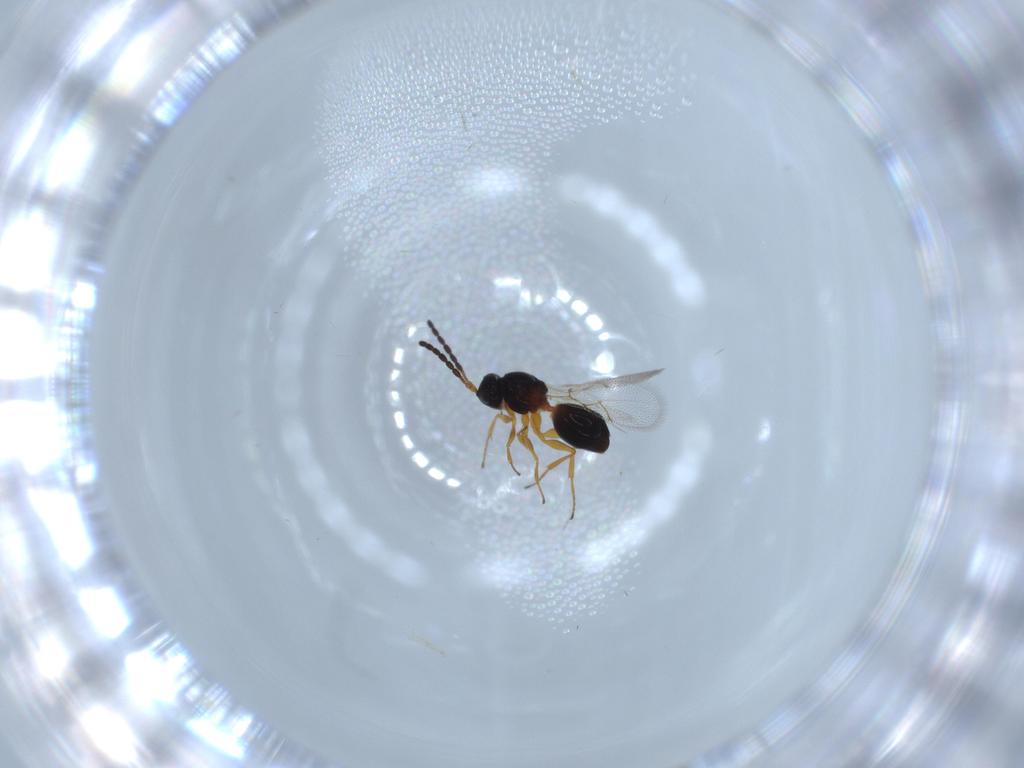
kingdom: Animalia
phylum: Arthropoda
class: Insecta
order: Hymenoptera
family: Figitidae
